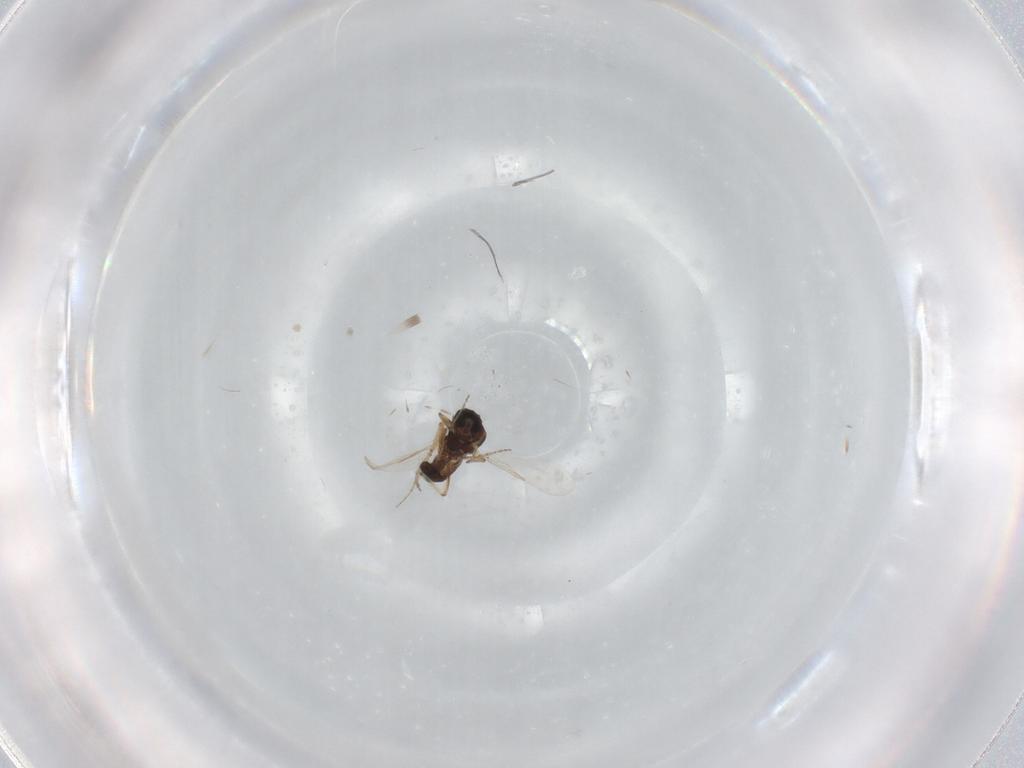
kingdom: Animalia
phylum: Arthropoda
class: Insecta
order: Diptera
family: Ceratopogonidae
